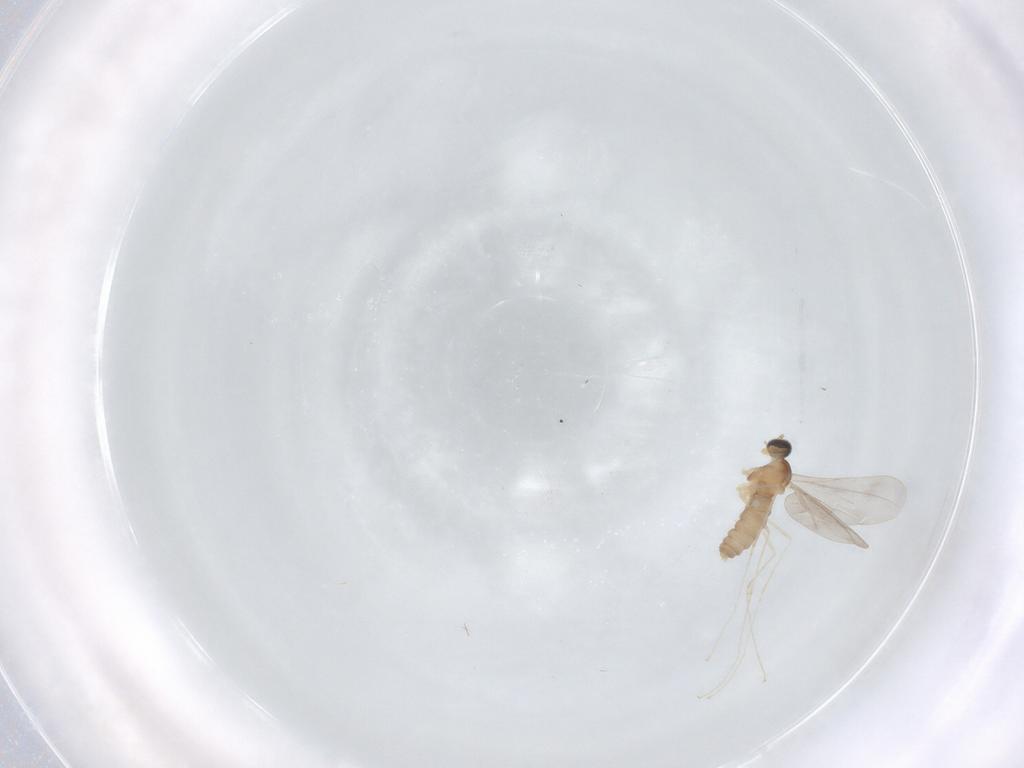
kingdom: Animalia
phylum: Arthropoda
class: Insecta
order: Diptera
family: Cecidomyiidae
